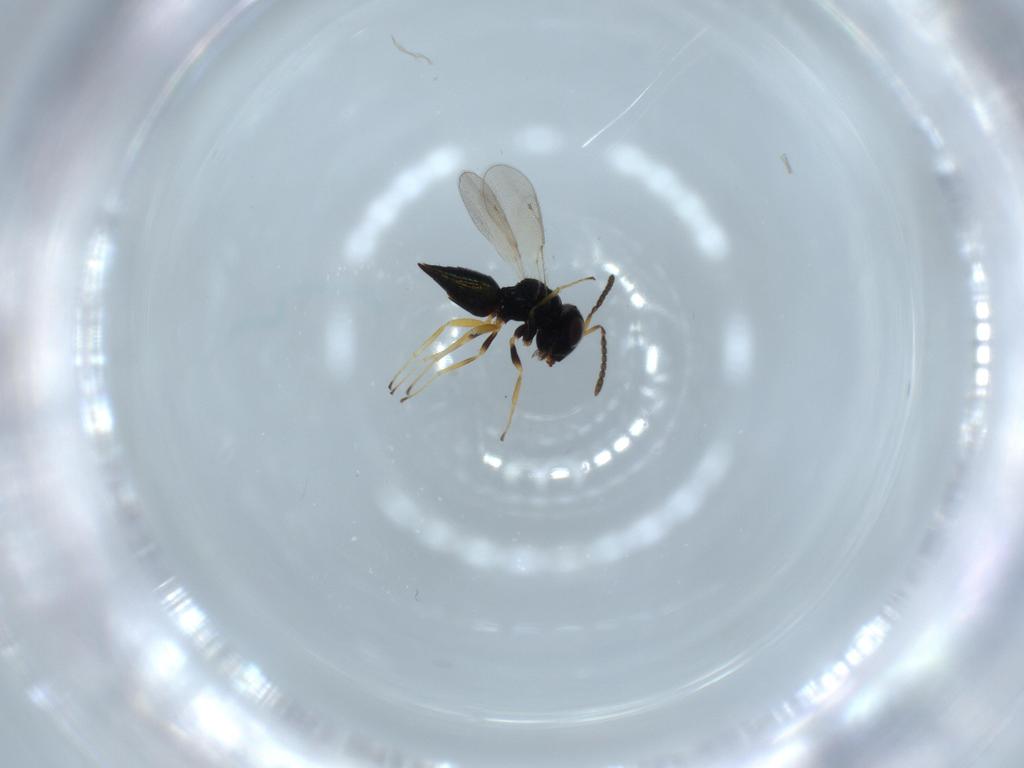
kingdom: Animalia
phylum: Arthropoda
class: Insecta
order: Hymenoptera
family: Pteromalidae
